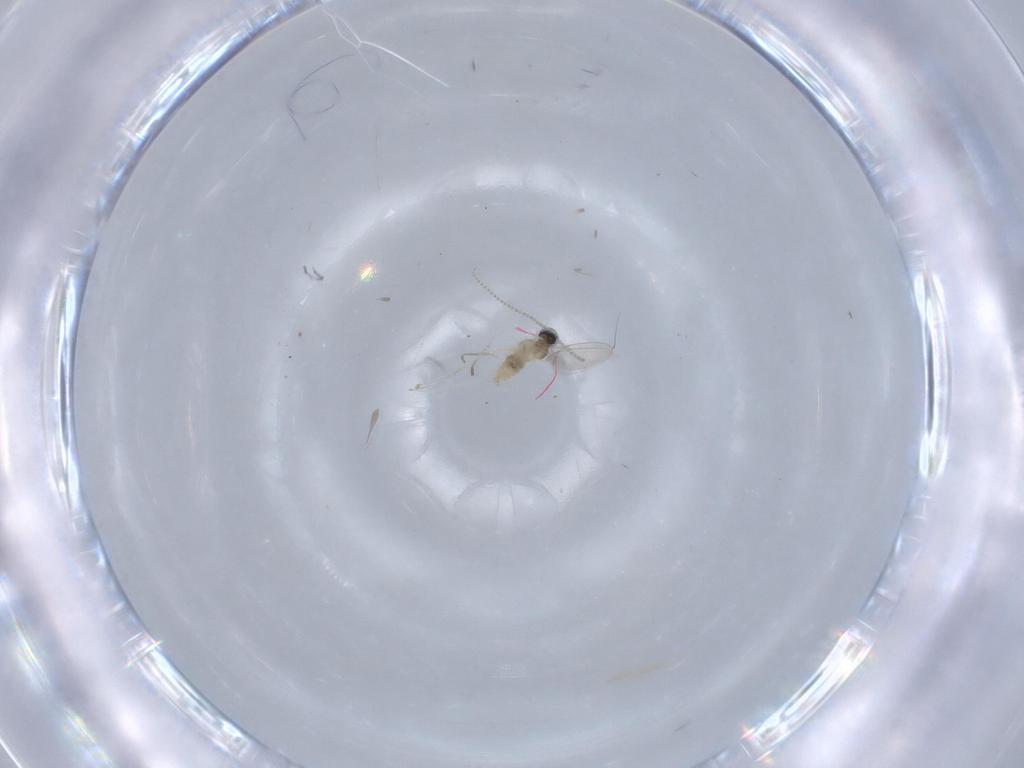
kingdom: Animalia
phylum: Arthropoda
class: Insecta
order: Diptera
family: Cecidomyiidae
